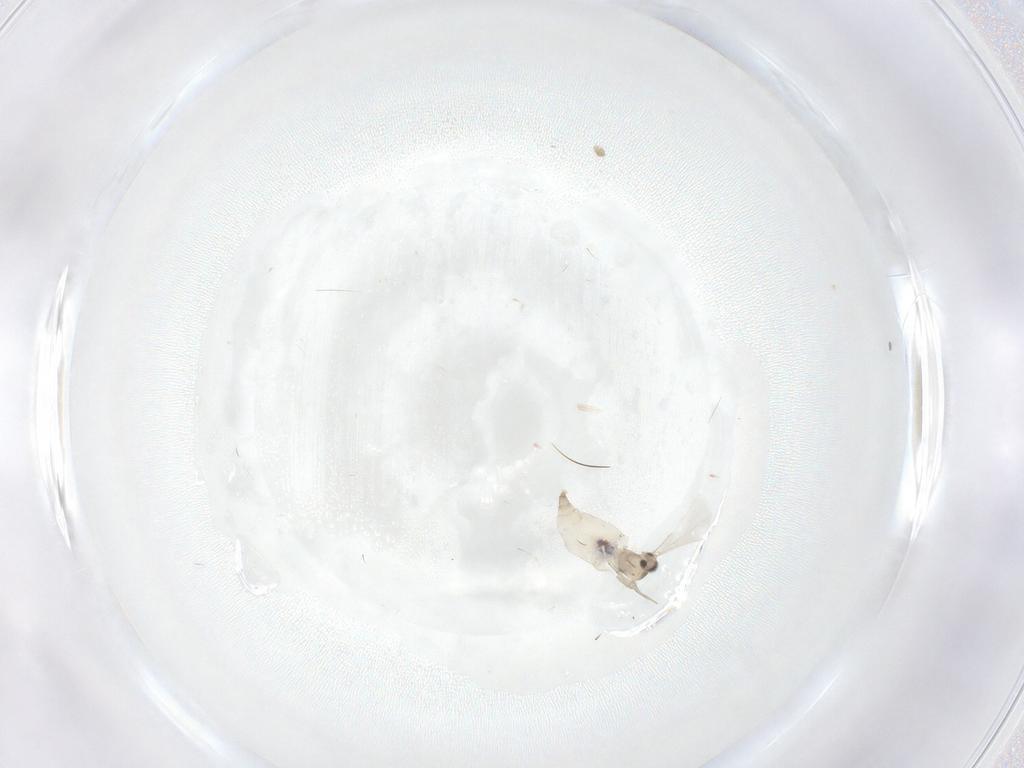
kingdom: Animalia
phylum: Arthropoda
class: Insecta
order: Diptera
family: Cecidomyiidae
